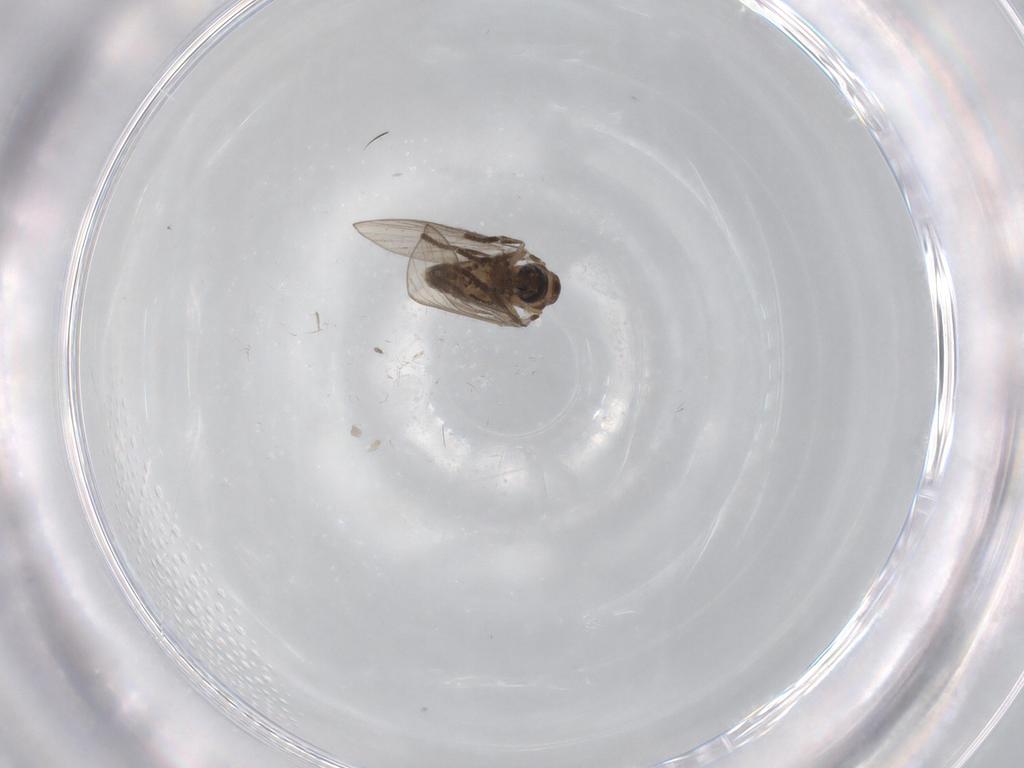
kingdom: Animalia
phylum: Arthropoda
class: Insecta
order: Diptera
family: Psychodidae
